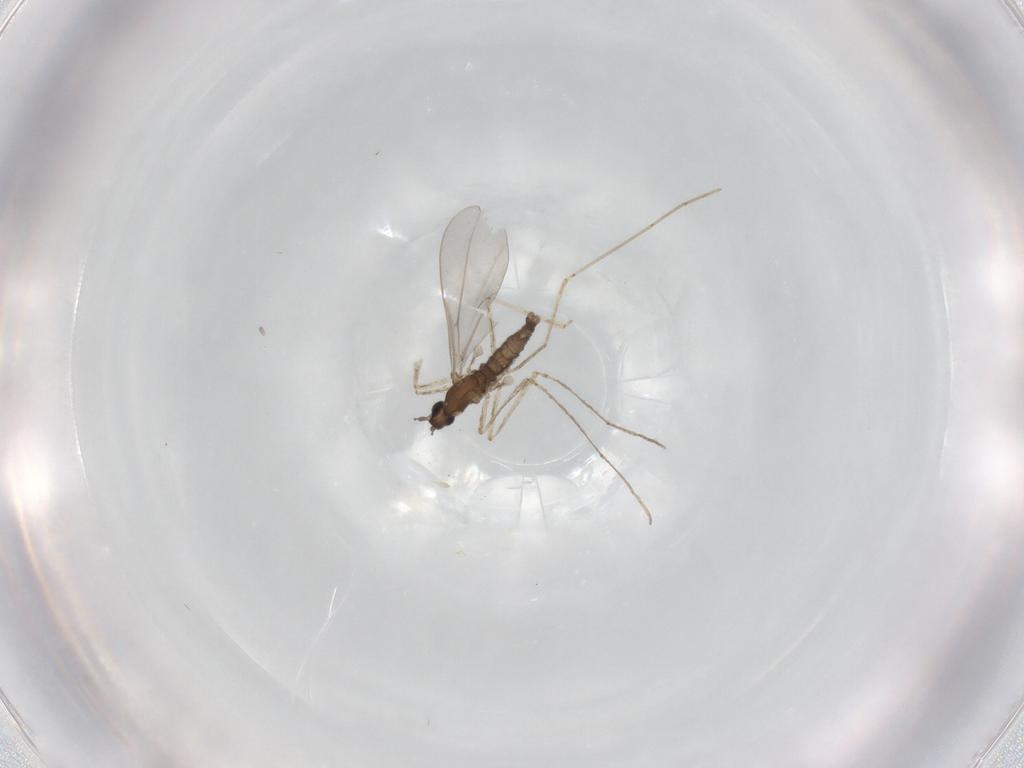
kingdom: Animalia
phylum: Arthropoda
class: Insecta
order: Diptera
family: Cecidomyiidae
